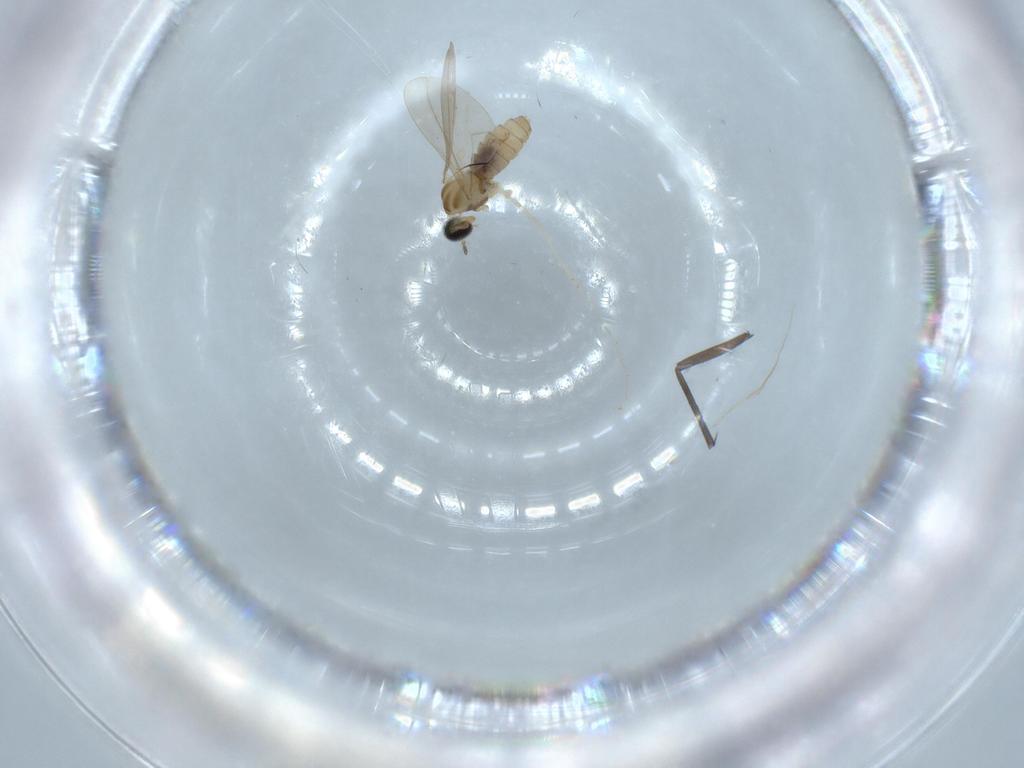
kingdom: Animalia
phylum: Arthropoda
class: Insecta
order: Diptera
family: Cecidomyiidae
